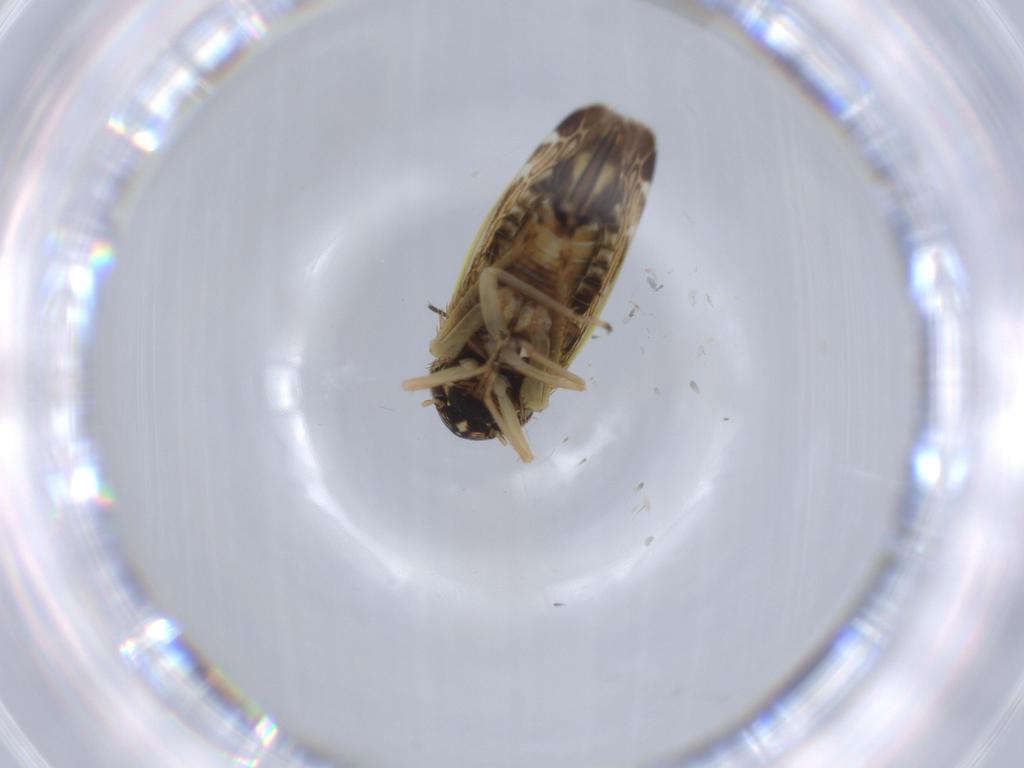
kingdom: Animalia
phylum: Arthropoda
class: Insecta
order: Hemiptera
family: Cicadellidae
